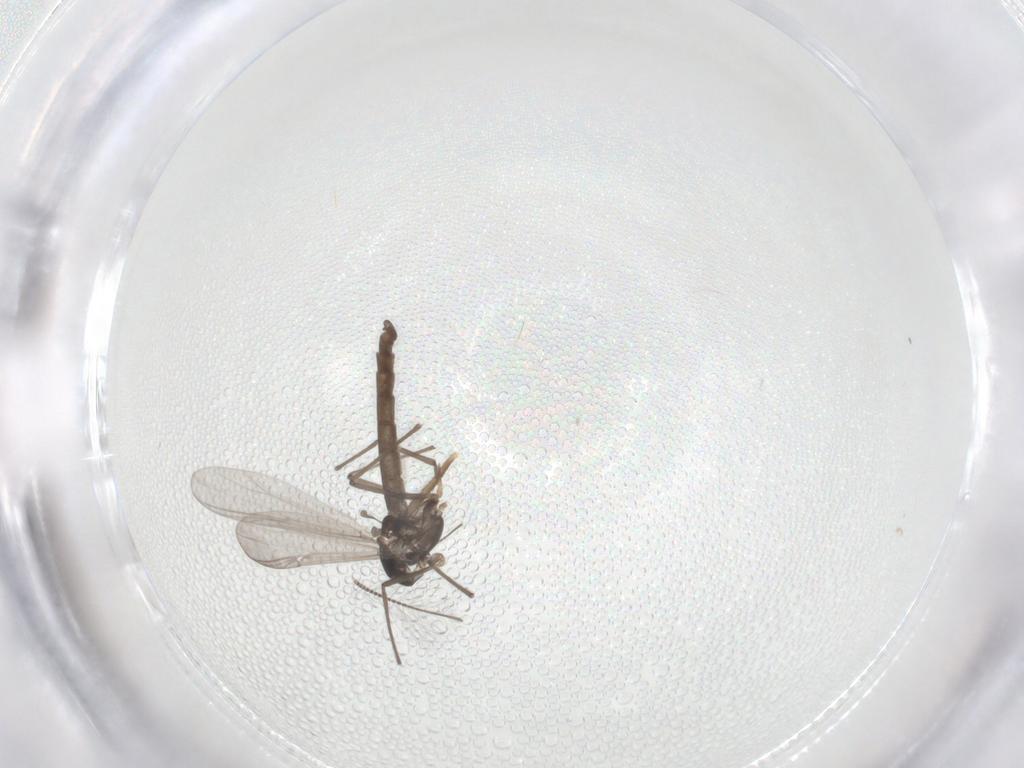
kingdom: Animalia
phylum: Arthropoda
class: Insecta
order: Diptera
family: Chironomidae
